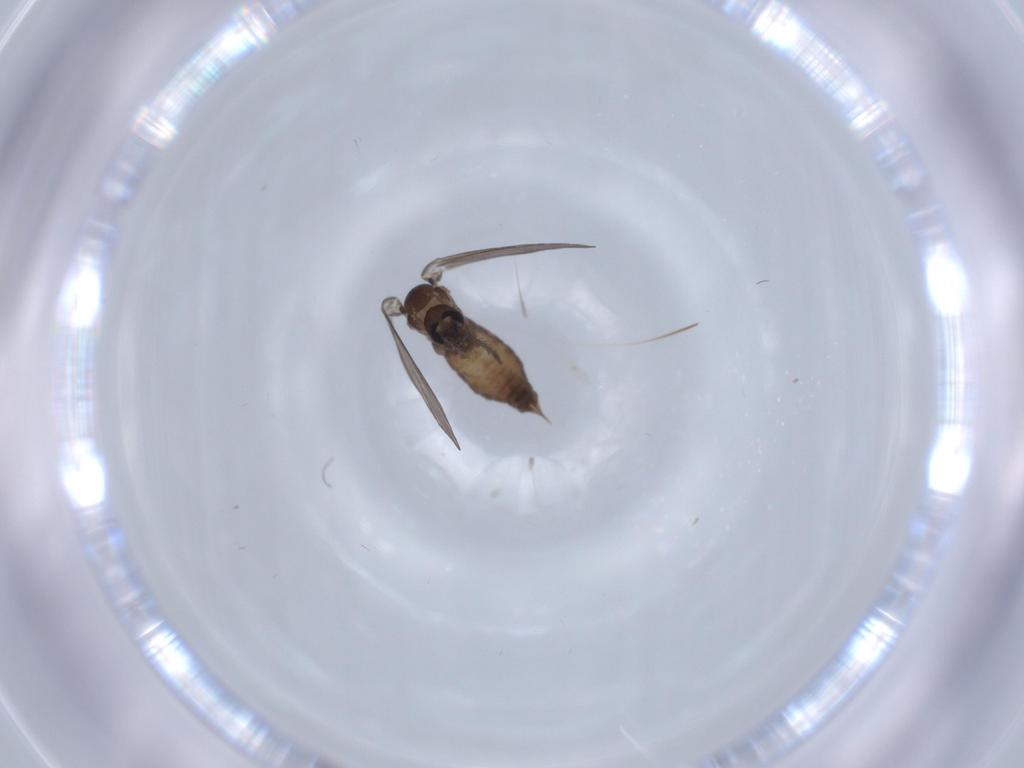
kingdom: Animalia
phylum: Arthropoda
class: Insecta
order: Diptera
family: Psychodidae
